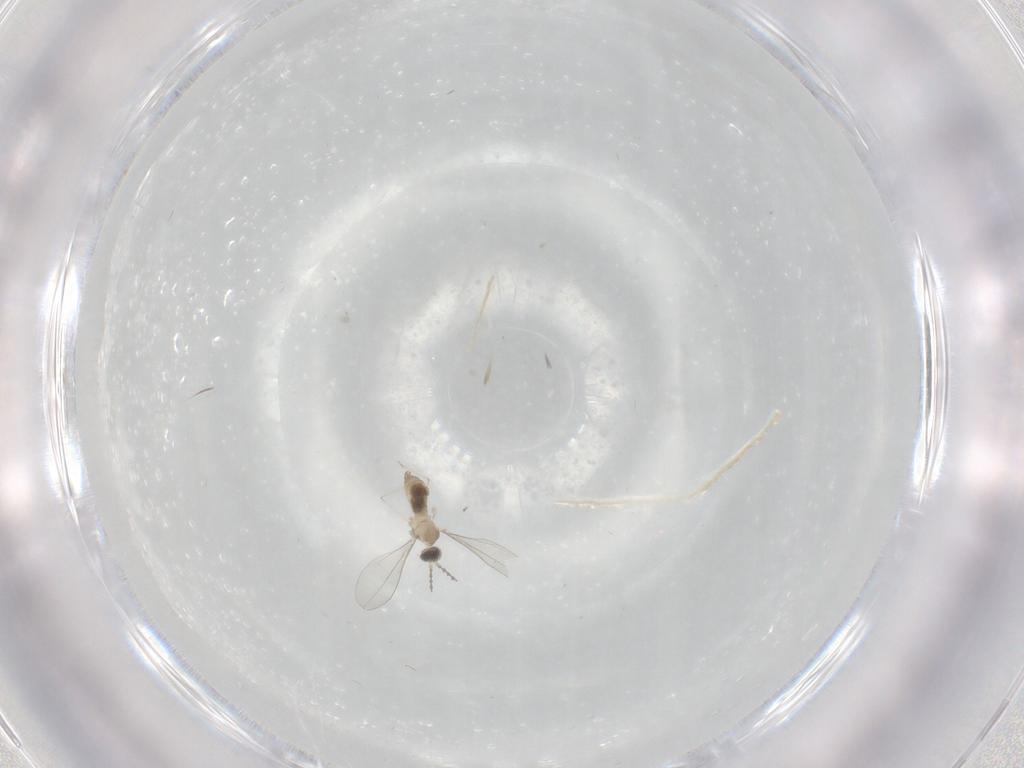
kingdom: Animalia
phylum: Arthropoda
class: Insecta
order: Diptera
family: Cecidomyiidae
